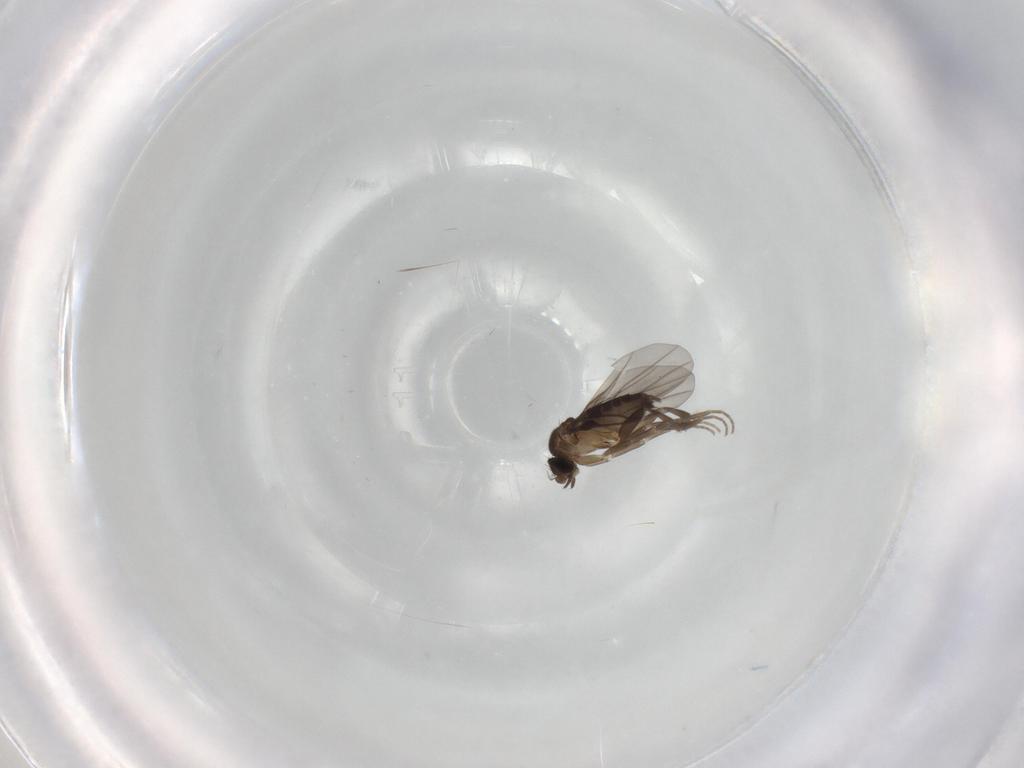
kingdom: Animalia
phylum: Arthropoda
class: Insecta
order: Diptera
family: Phoridae
